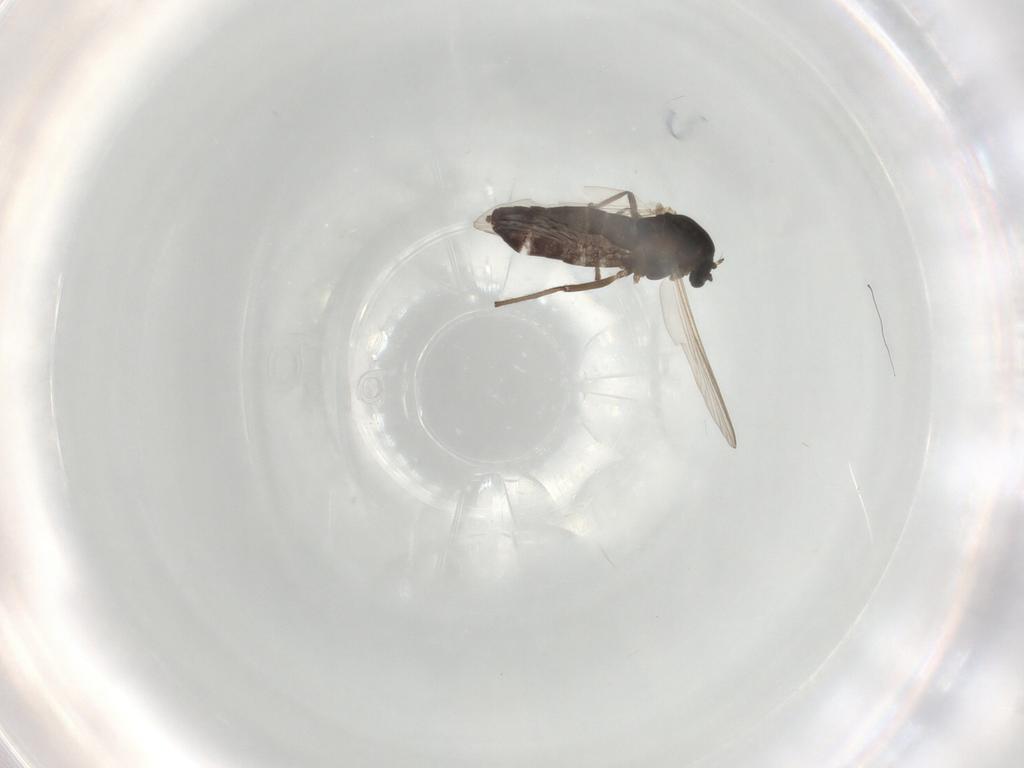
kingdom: Animalia
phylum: Arthropoda
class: Insecta
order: Diptera
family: Chironomidae
